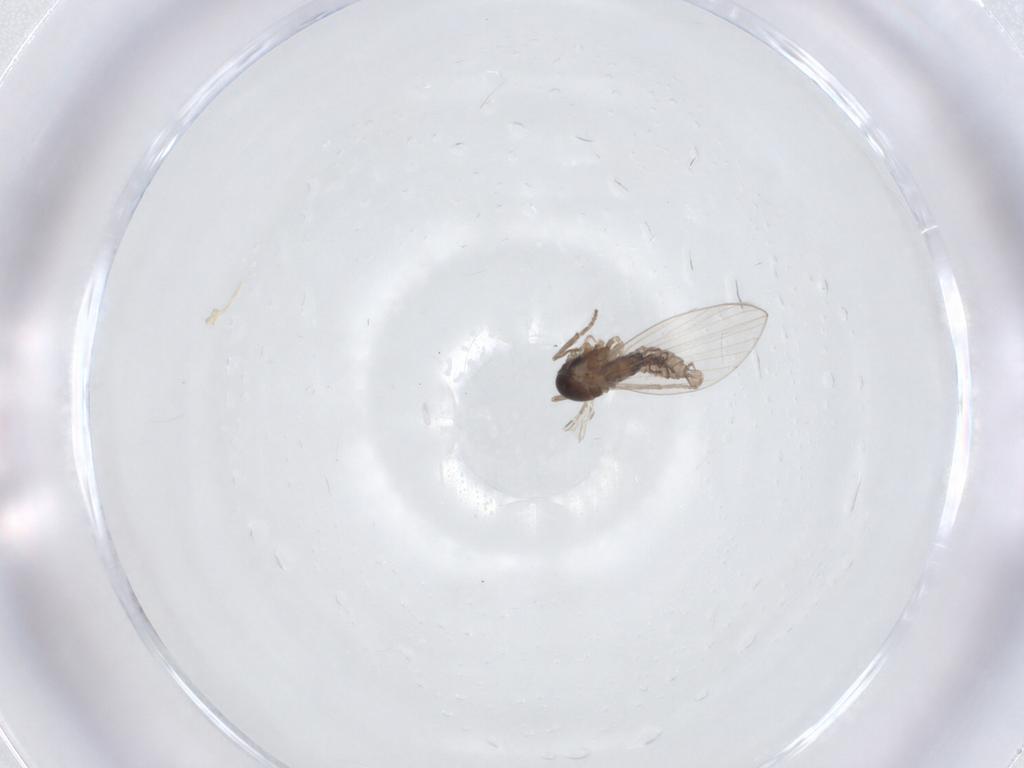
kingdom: Animalia
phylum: Arthropoda
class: Insecta
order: Diptera
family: Psychodidae
